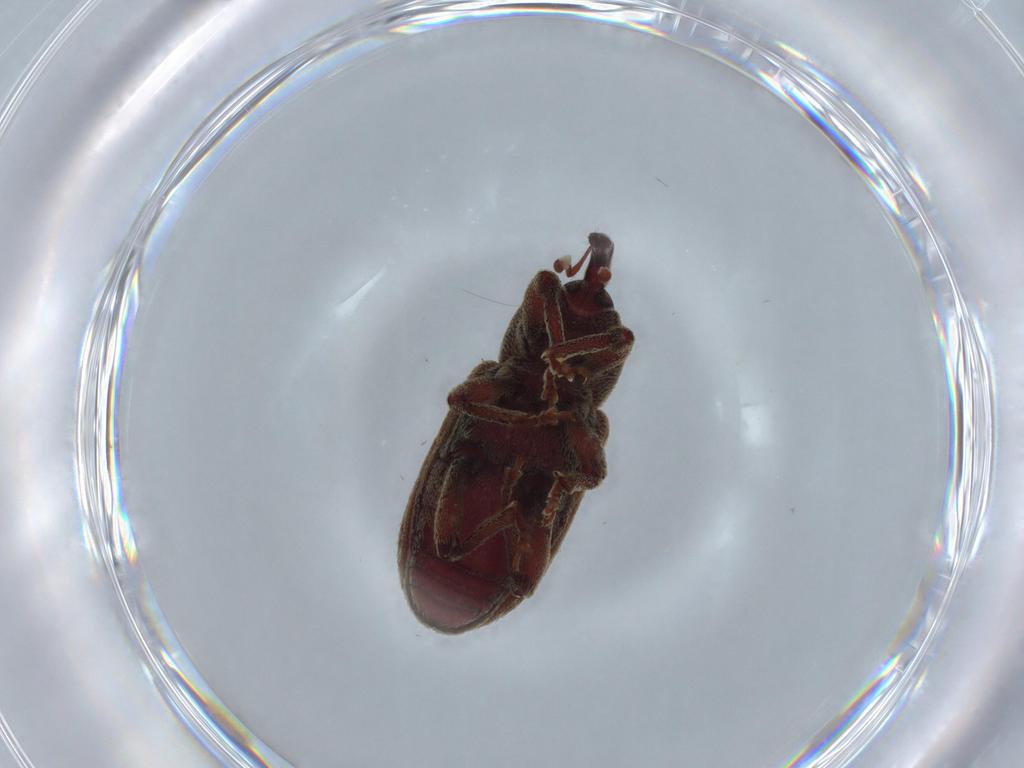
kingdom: Animalia
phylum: Arthropoda
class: Insecta
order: Coleoptera
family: Curculionidae
